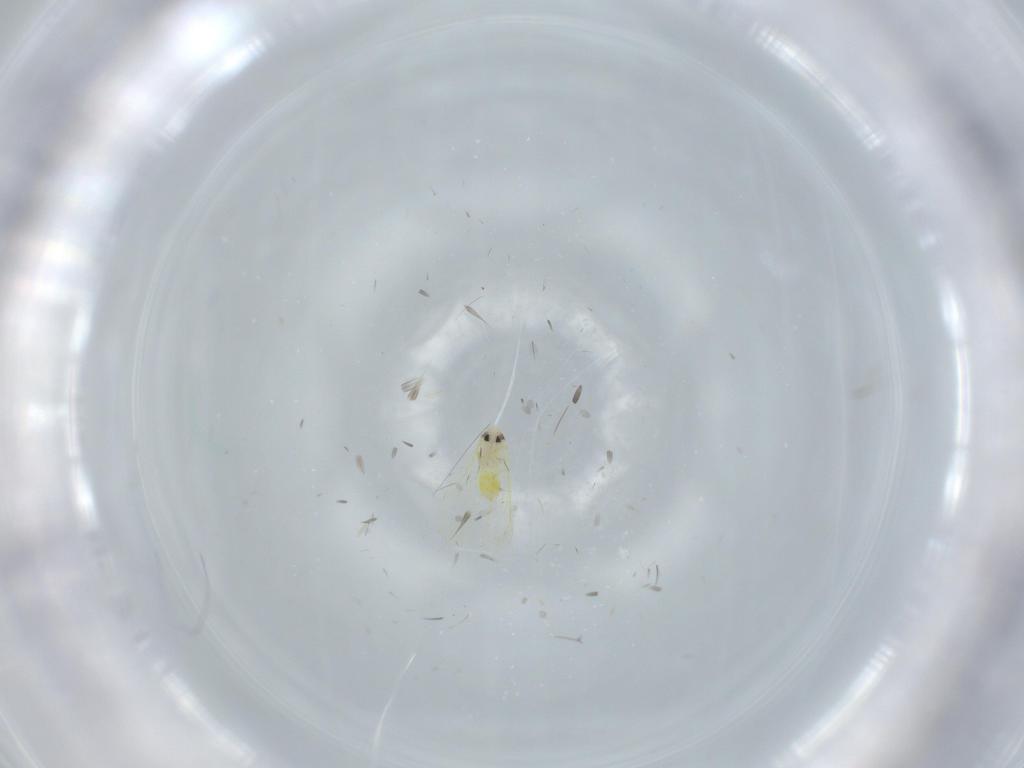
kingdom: Animalia
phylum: Arthropoda
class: Insecta
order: Hemiptera
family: Aleyrodidae
